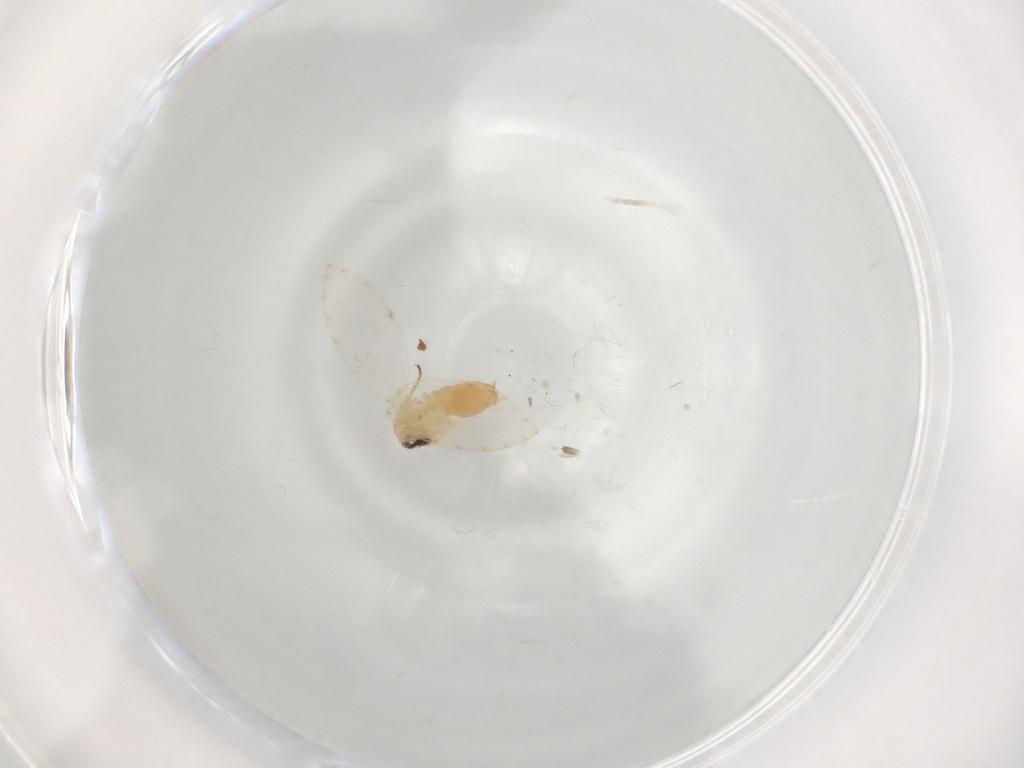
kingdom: Animalia
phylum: Arthropoda
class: Insecta
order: Diptera
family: Psychodidae
